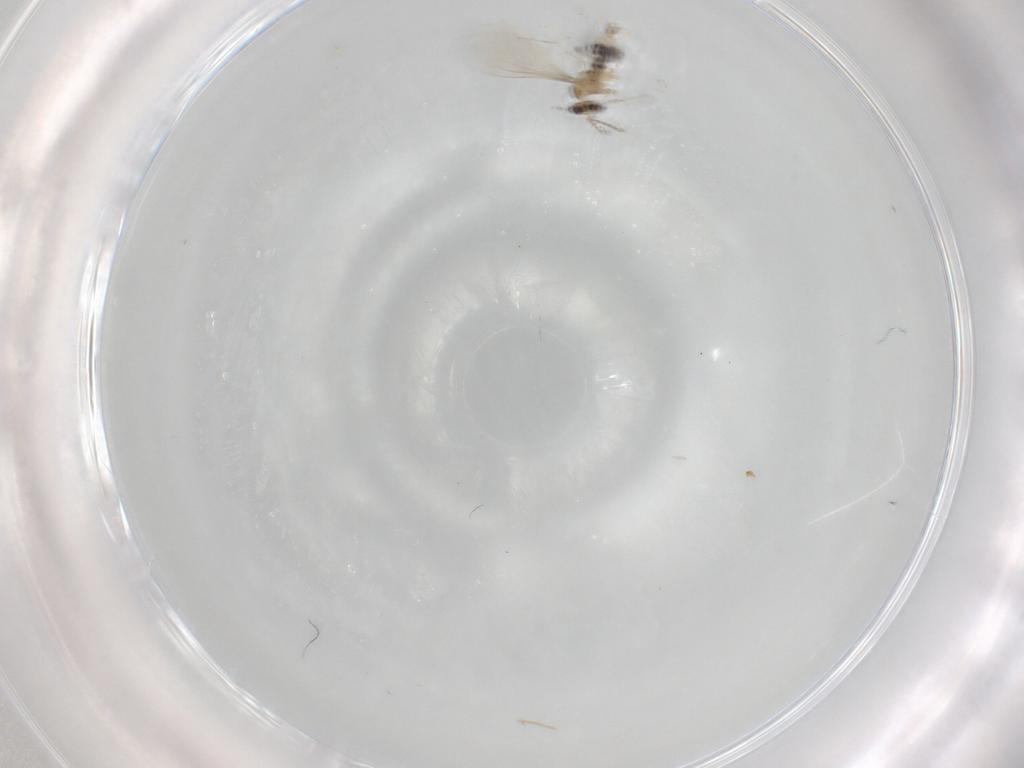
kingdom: Animalia
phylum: Arthropoda
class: Insecta
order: Diptera
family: Phoridae
